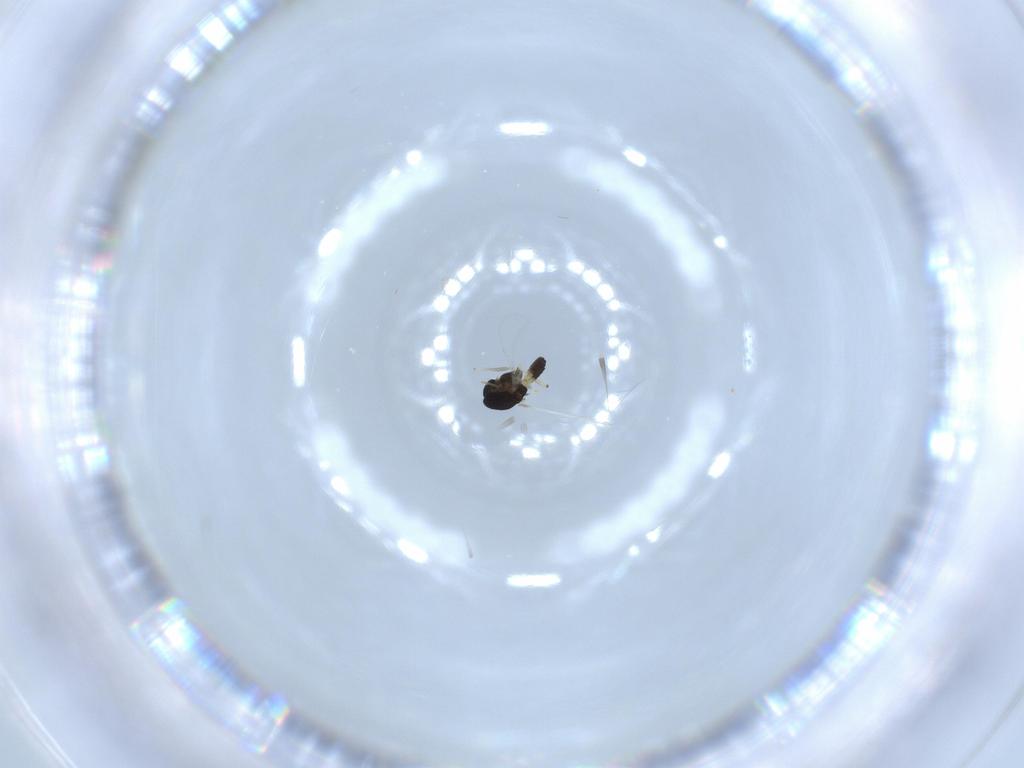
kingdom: Animalia
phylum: Arthropoda
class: Insecta
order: Diptera
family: Chironomidae
